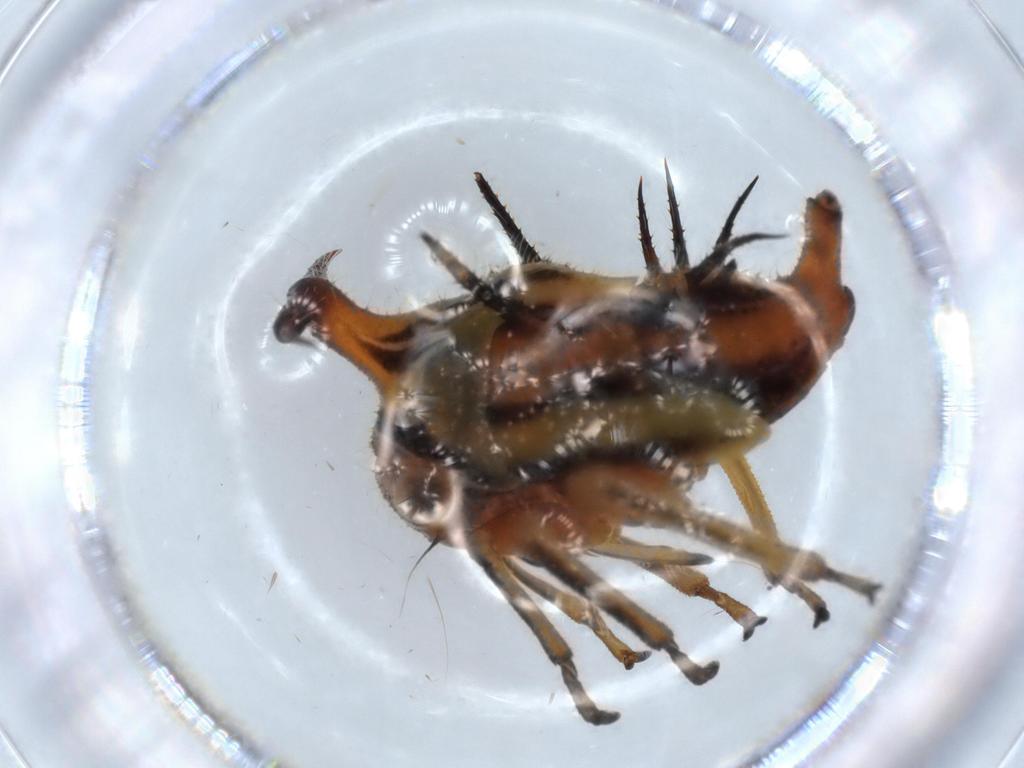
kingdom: Animalia
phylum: Arthropoda
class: Insecta
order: Hemiptera
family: Membracidae
